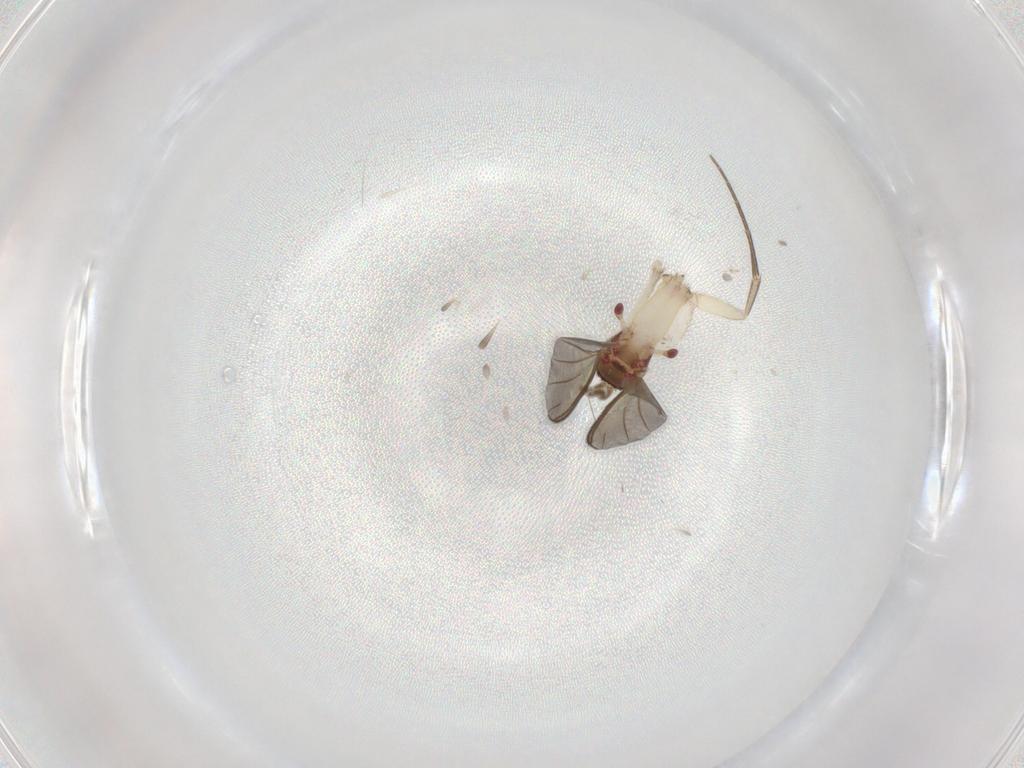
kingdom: Animalia
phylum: Arthropoda
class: Insecta
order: Diptera
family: Mycetophilidae
